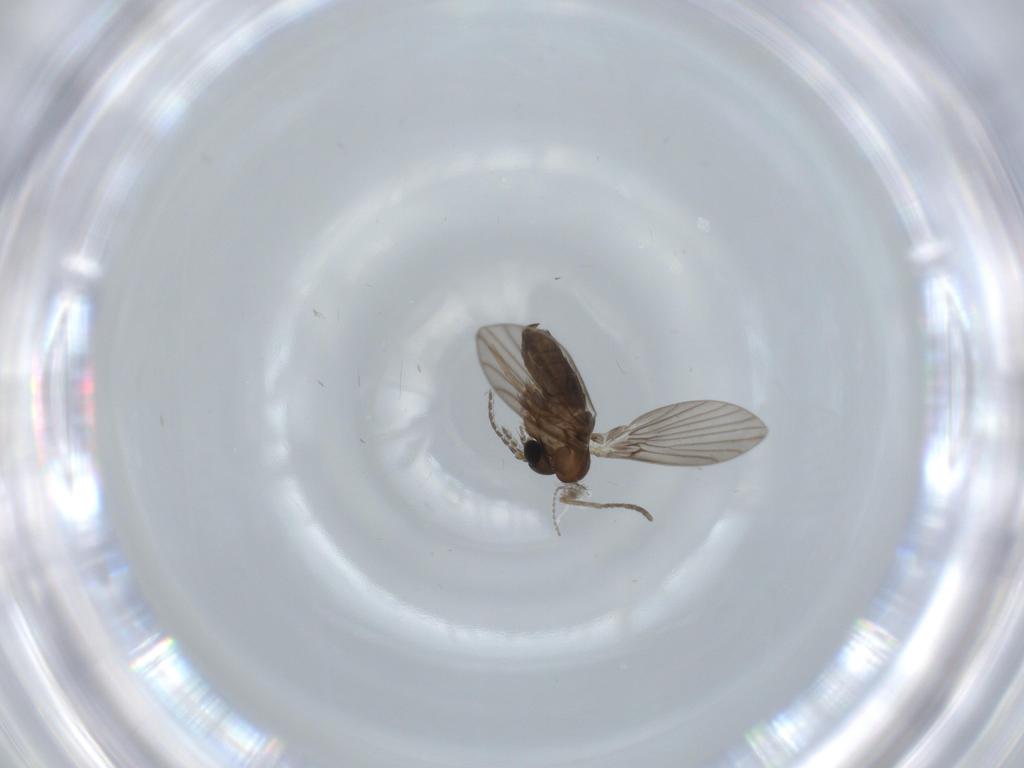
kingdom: Animalia
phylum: Arthropoda
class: Insecta
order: Diptera
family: Psychodidae
